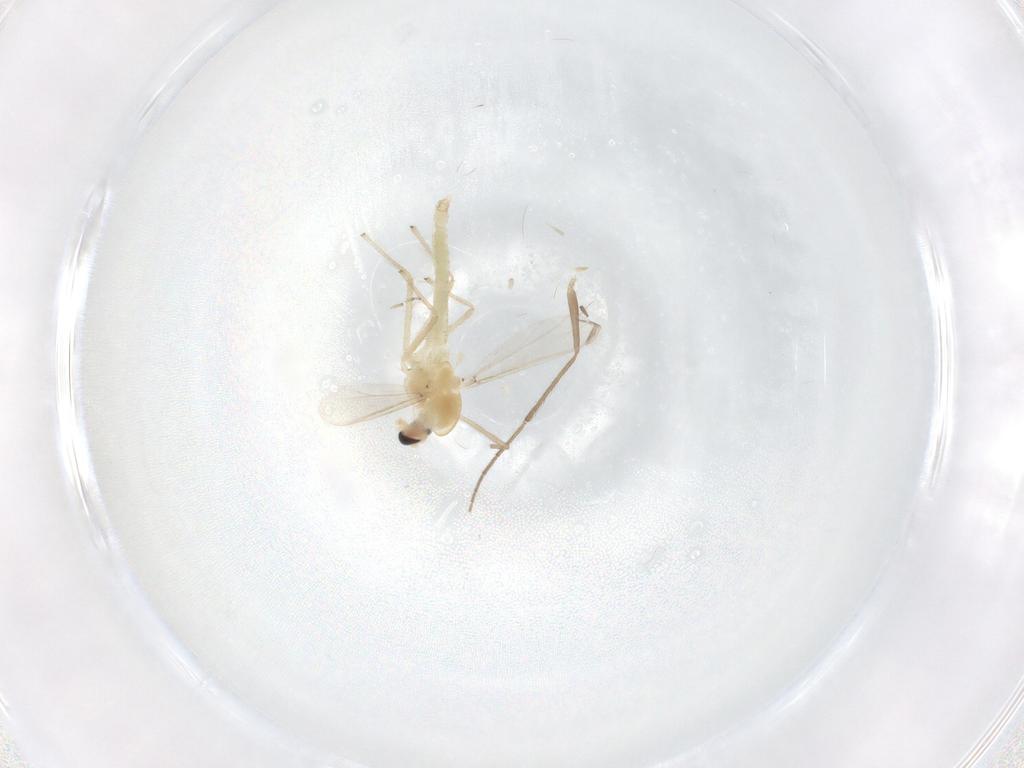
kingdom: Animalia
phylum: Arthropoda
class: Insecta
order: Diptera
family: Chironomidae
